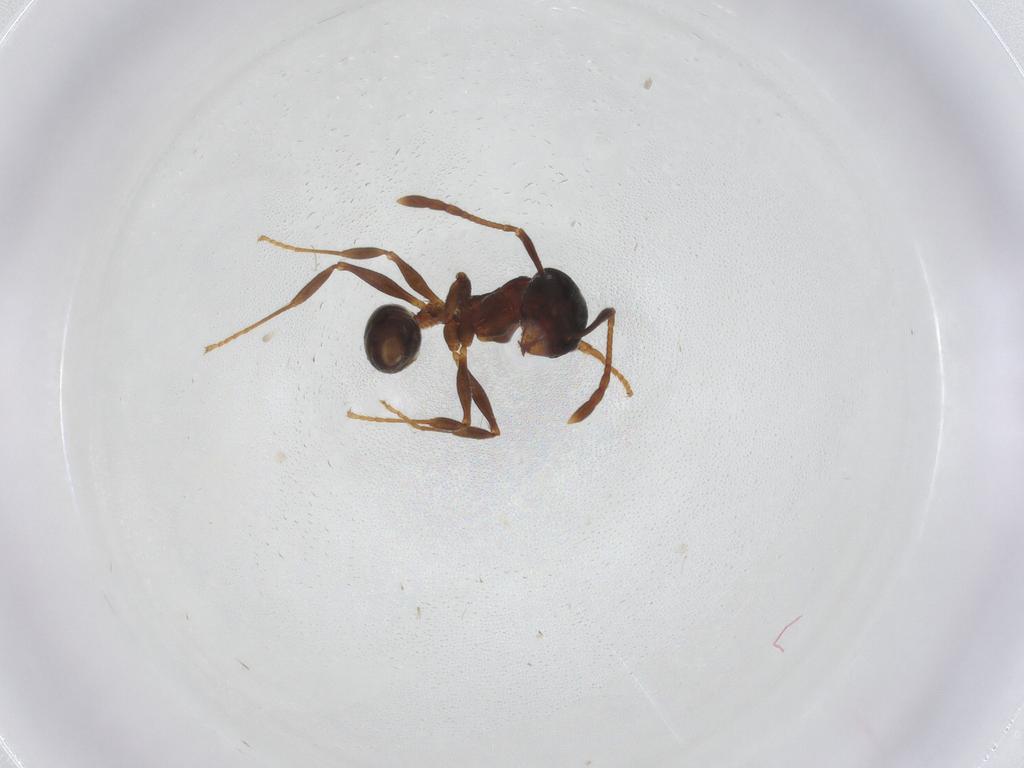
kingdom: Animalia
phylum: Arthropoda
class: Insecta
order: Hymenoptera
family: Formicidae
